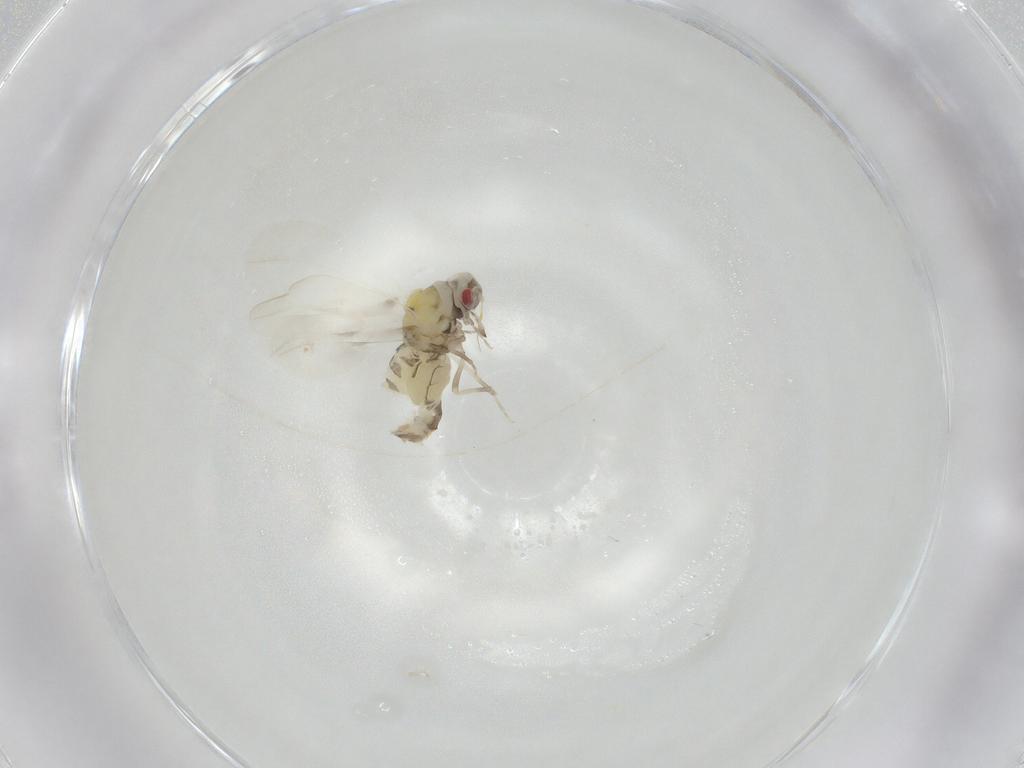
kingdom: Animalia
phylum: Arthropoda
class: Insecta
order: Hemiptera
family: Aleyrodidae
